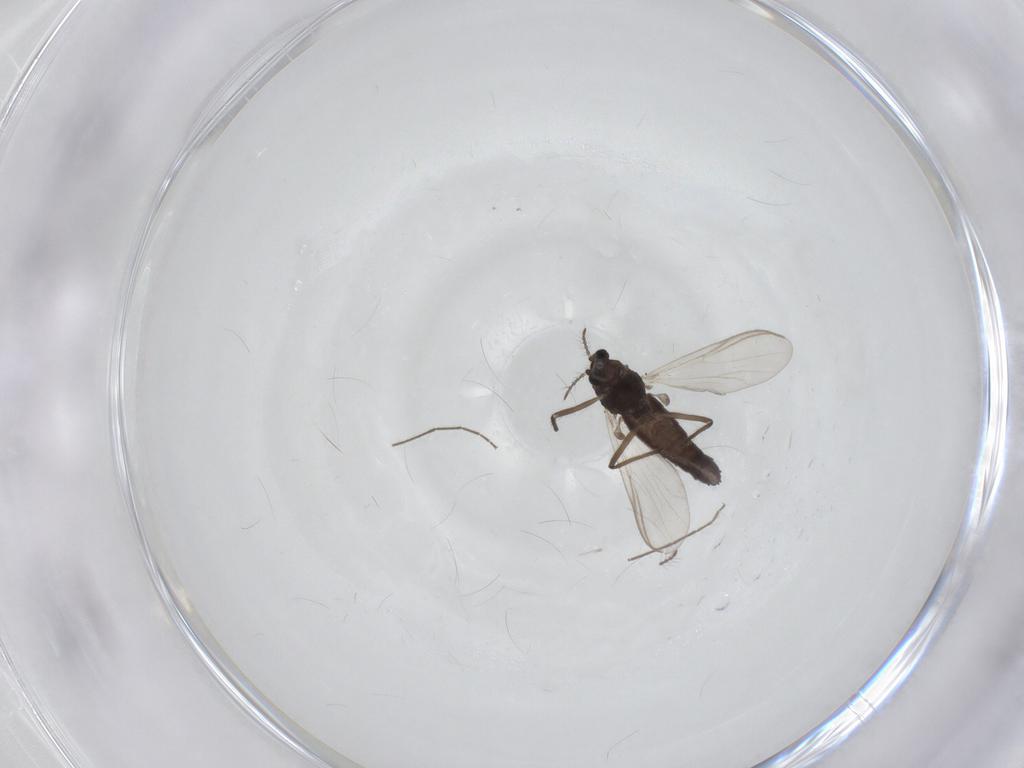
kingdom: Animalia
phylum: Arthropoda
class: Insecta
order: Diptera
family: Chironomidae
